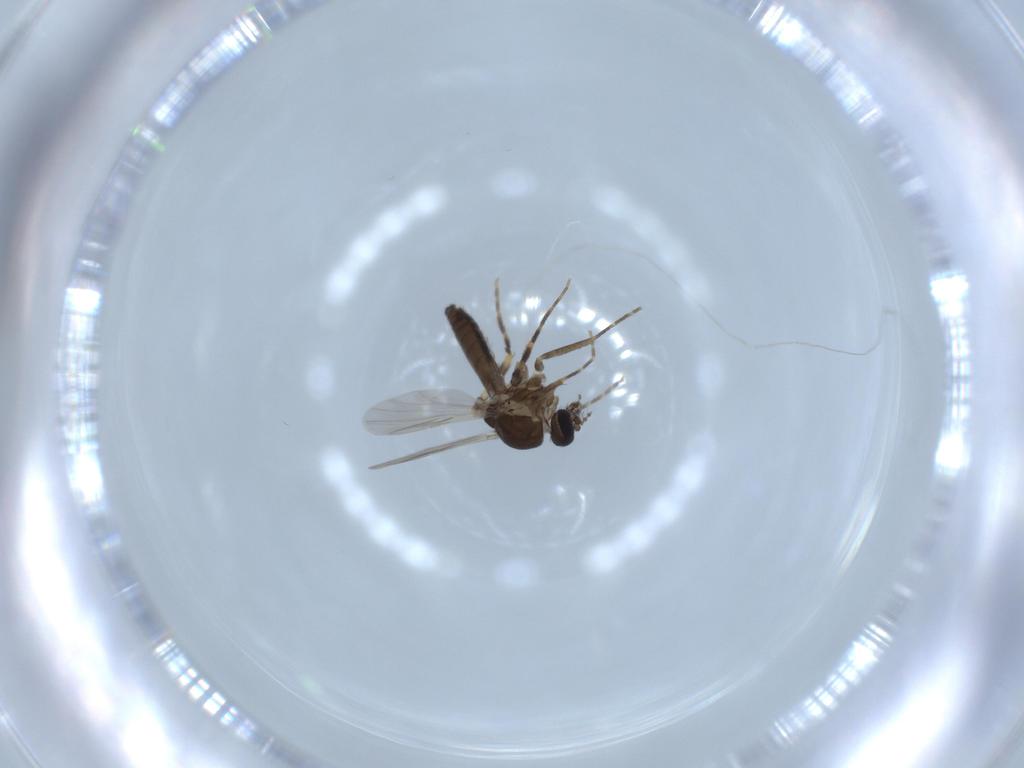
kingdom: Animalia
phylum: Arthropoda
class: Insecta
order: Diptera
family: Ceratopogonidae
